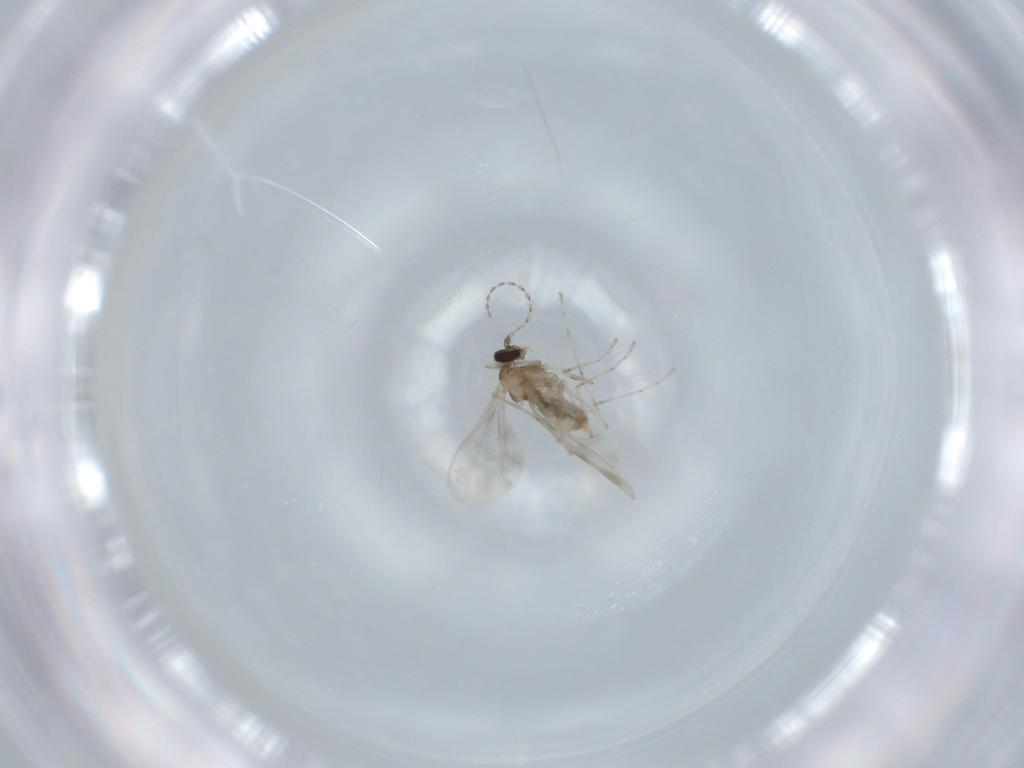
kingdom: Animalia
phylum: Arthropoda
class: Insecta
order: Diptera
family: Cecidomyiidae
